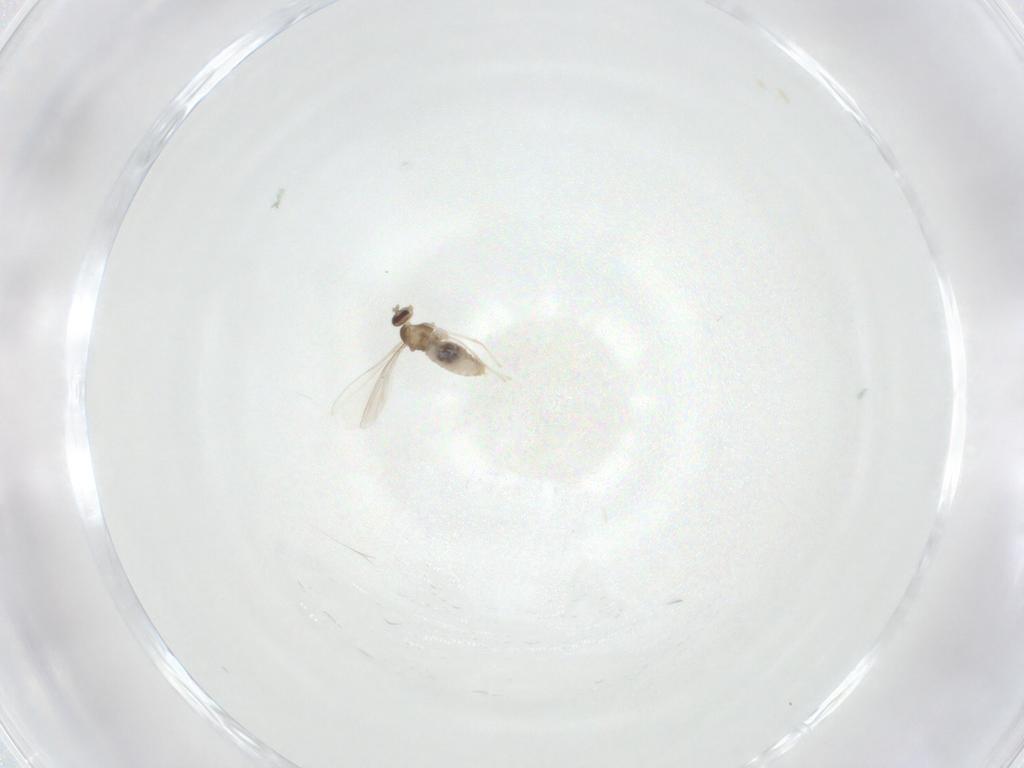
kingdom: Animalia
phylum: Arthropoda
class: Insecta
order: Diptera
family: Cecidomyiidae
